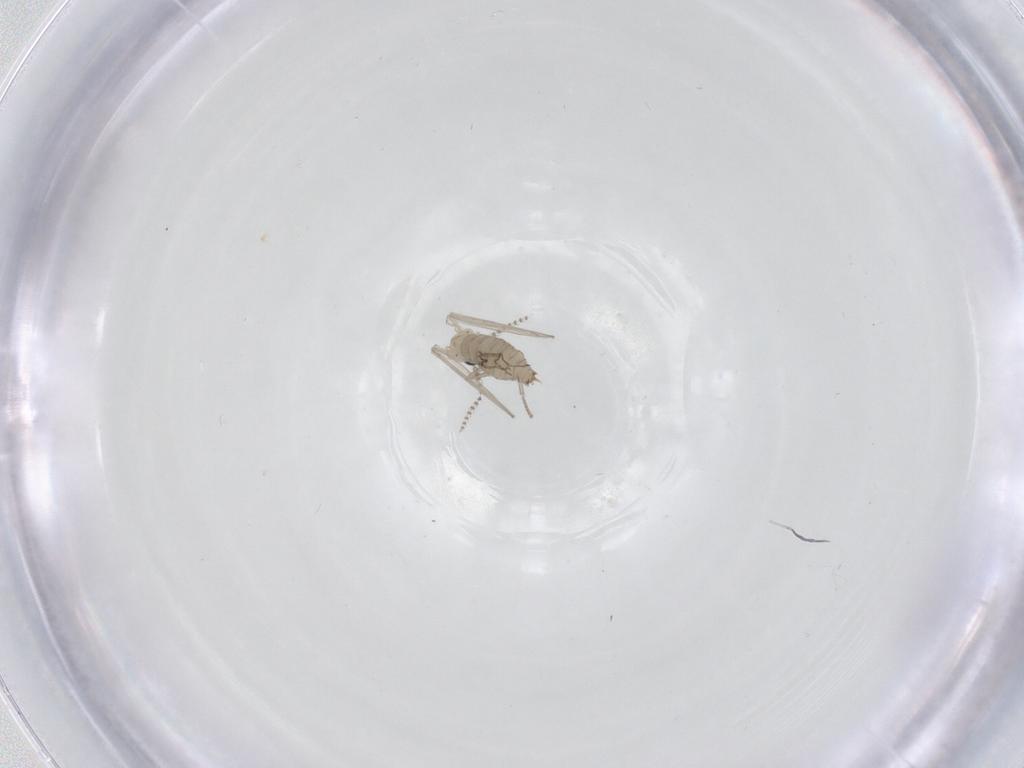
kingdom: Animalia
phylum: Arthropoda
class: Insecta
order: Diptera
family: Psychodidae
